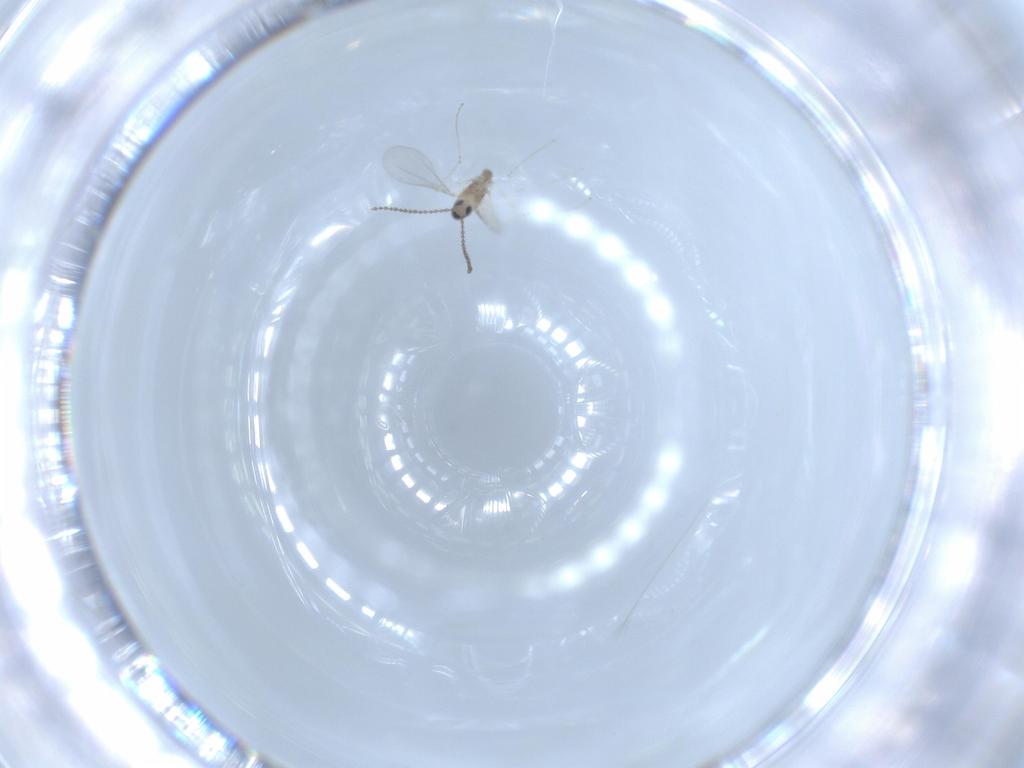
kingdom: Animalia
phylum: Arthropoda
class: Insecta
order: Diptera
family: Cecidomyiidae
